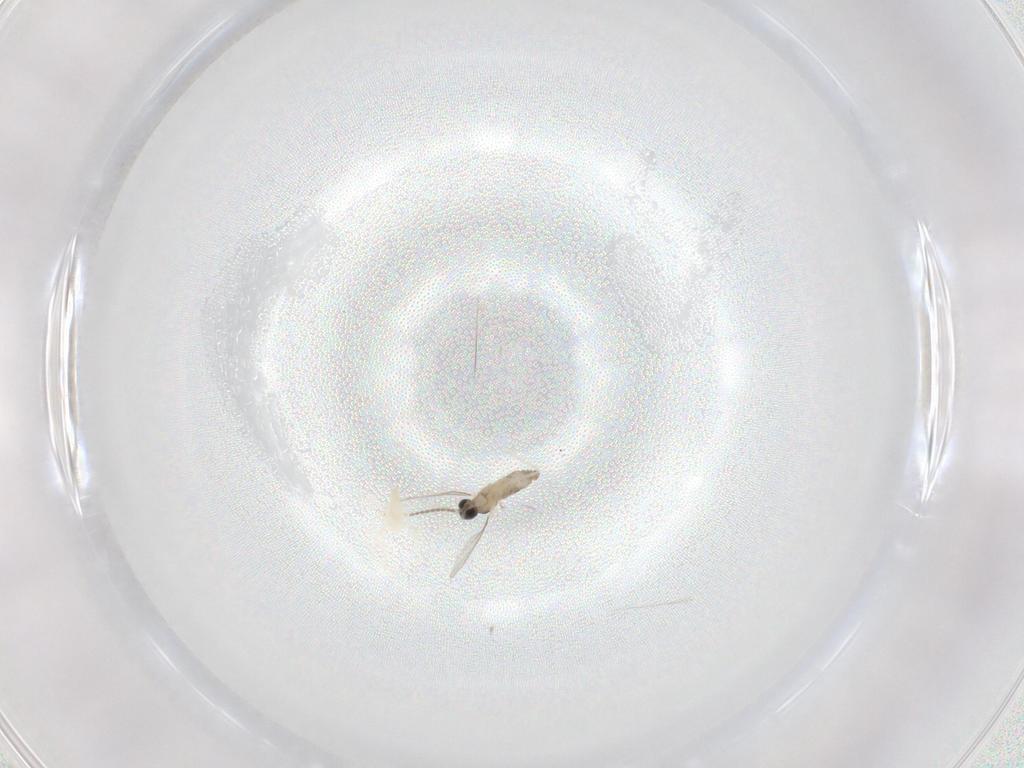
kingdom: Animalia
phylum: Arthropoda
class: Insecta
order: Diptera
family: Cecidomyiidae
